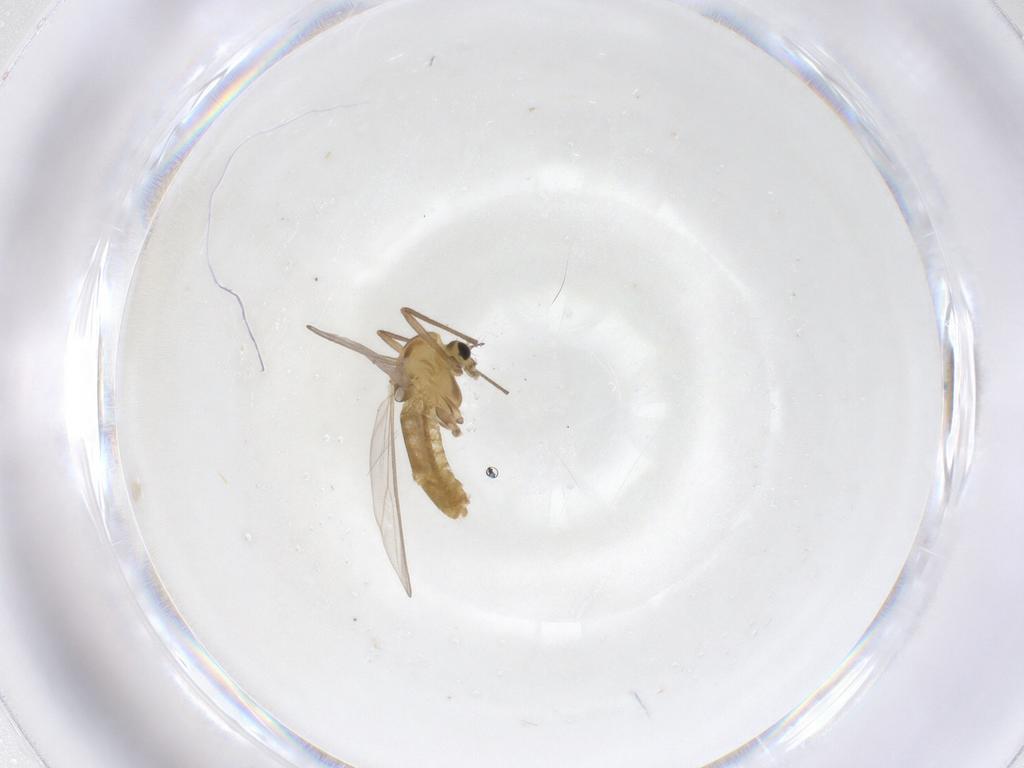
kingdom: Animalia
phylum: Arthropoda
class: Insecta
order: Diptera
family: Chironomidae
